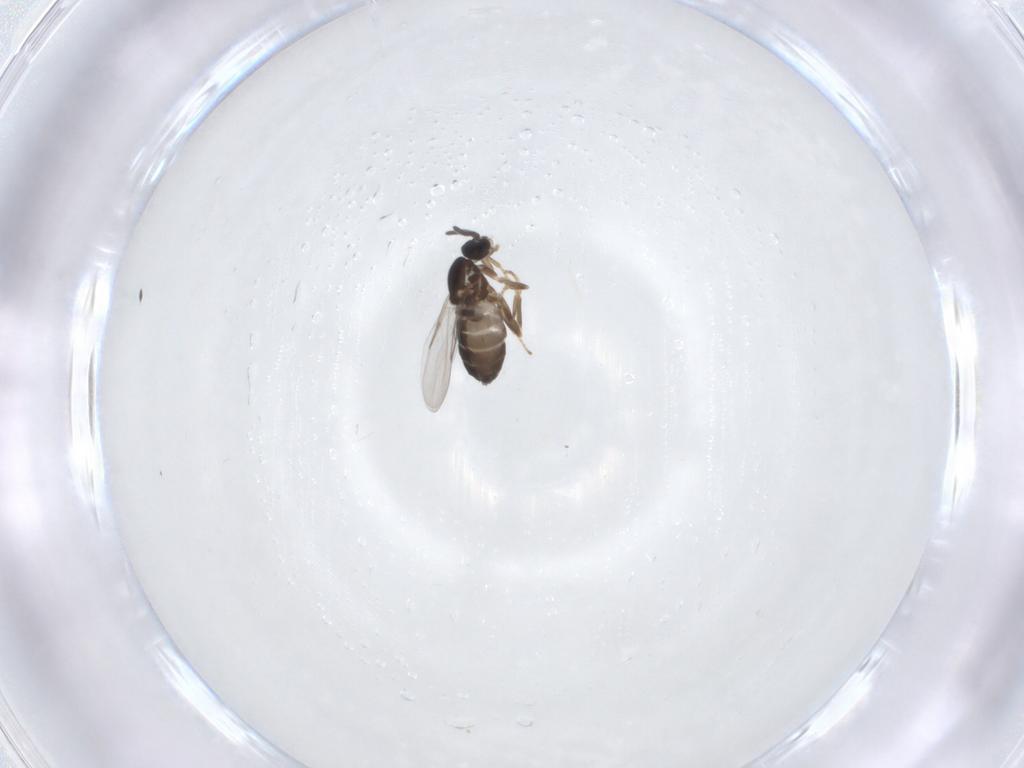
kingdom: Animalia
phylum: Arthropoda
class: Insecta
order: Diptera
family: Scatopsidae
